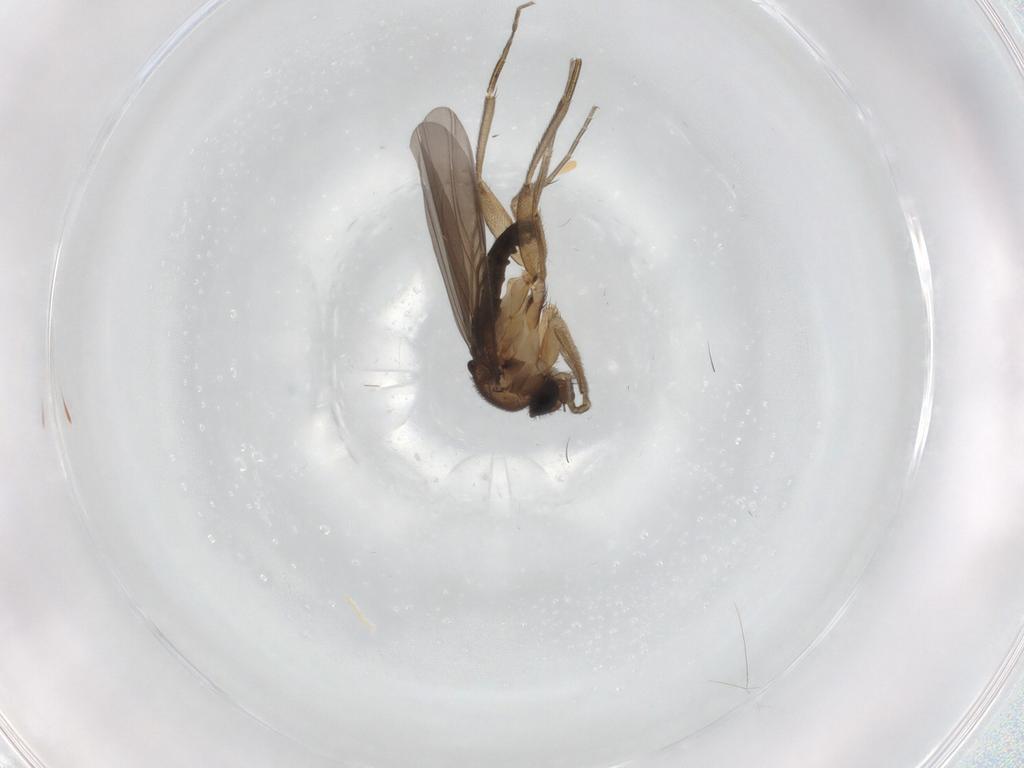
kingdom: Animalia
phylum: Arthropoda
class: Insecta
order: Diptera
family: Phoridae
